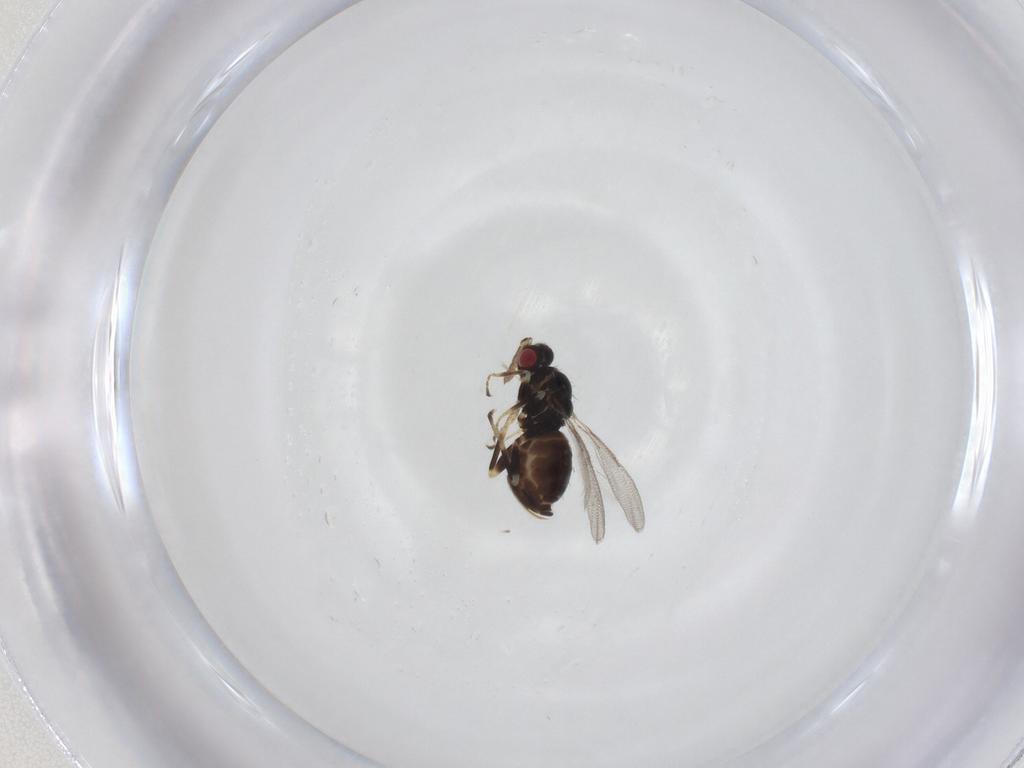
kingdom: Animalia
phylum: Arthropoda
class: Insecta
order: Hymenoptera
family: Eulophidae
